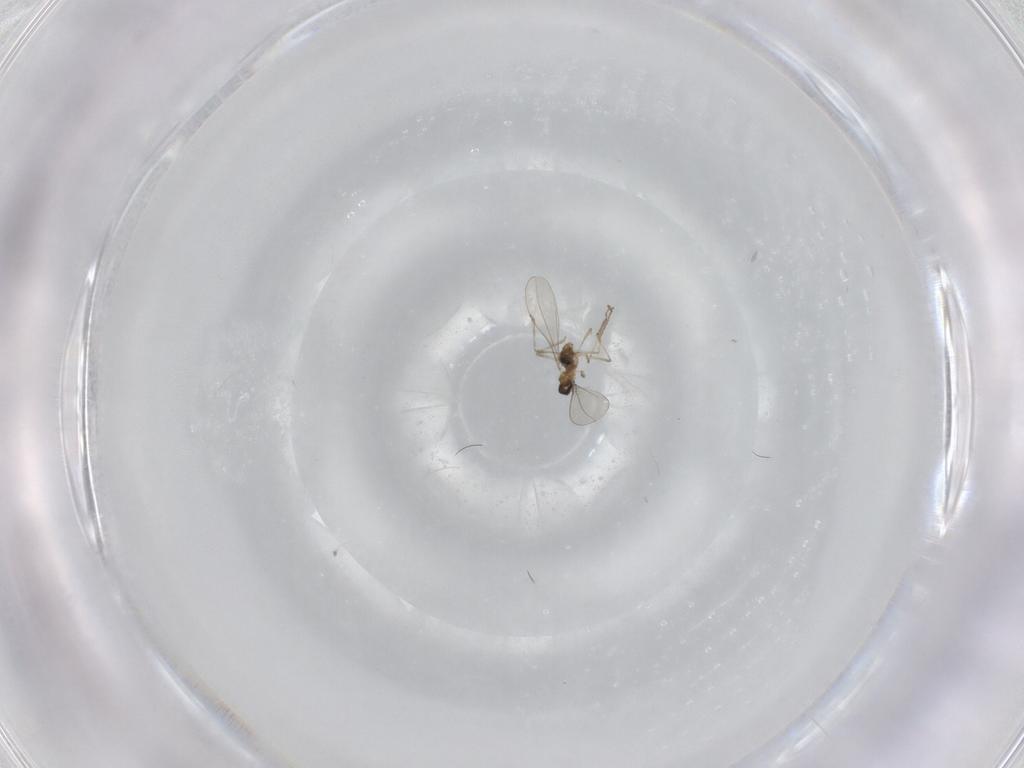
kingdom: Animalia
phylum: Arthropoda
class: Insecta
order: Diptera
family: Chironomidae
